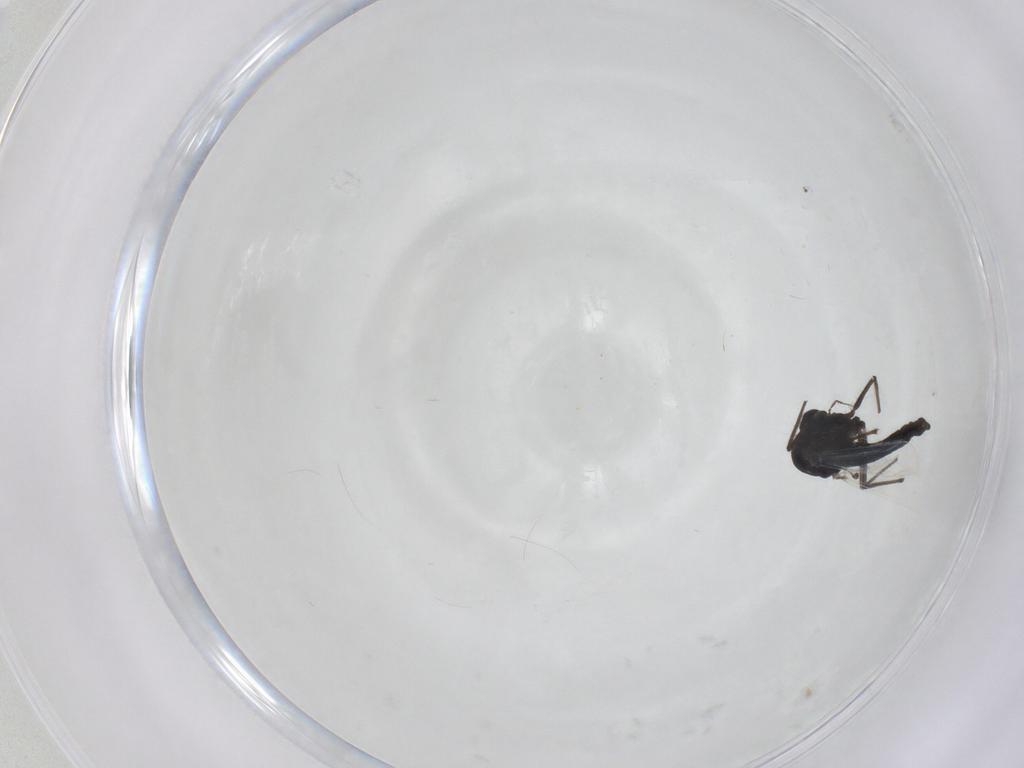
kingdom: Animalia
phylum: Arthropoda
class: Insecta
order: Diptera
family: Chironomidae
